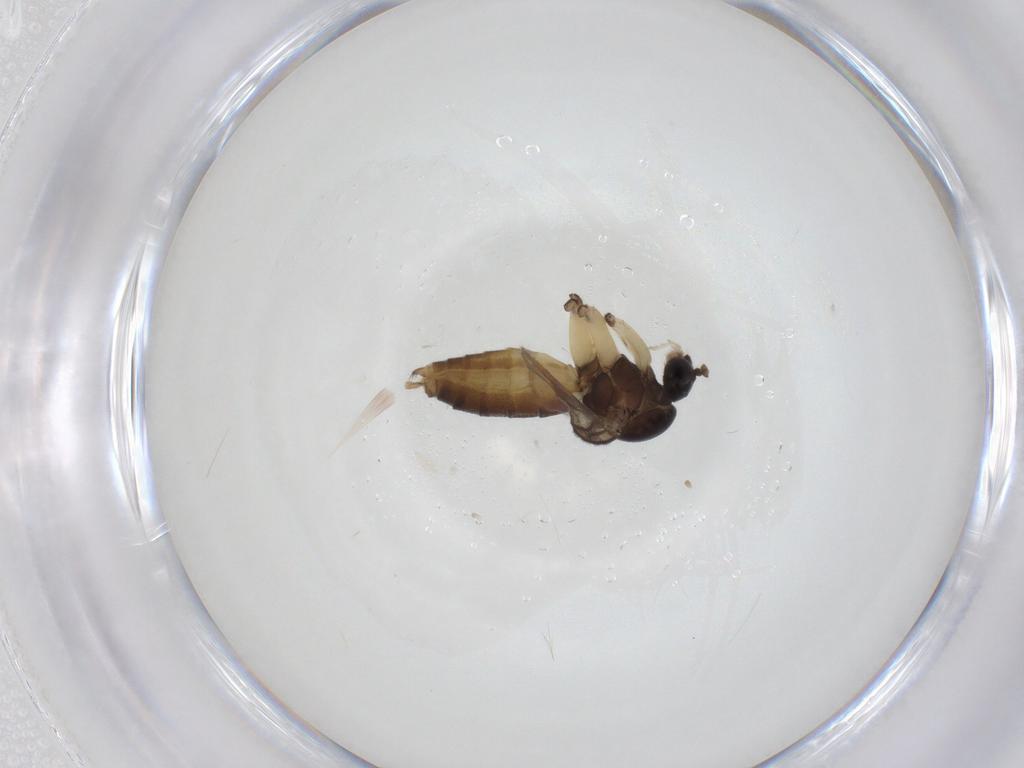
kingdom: Animalia
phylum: Arthropoda
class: Insecta
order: Diptera
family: Mycetophilidae
